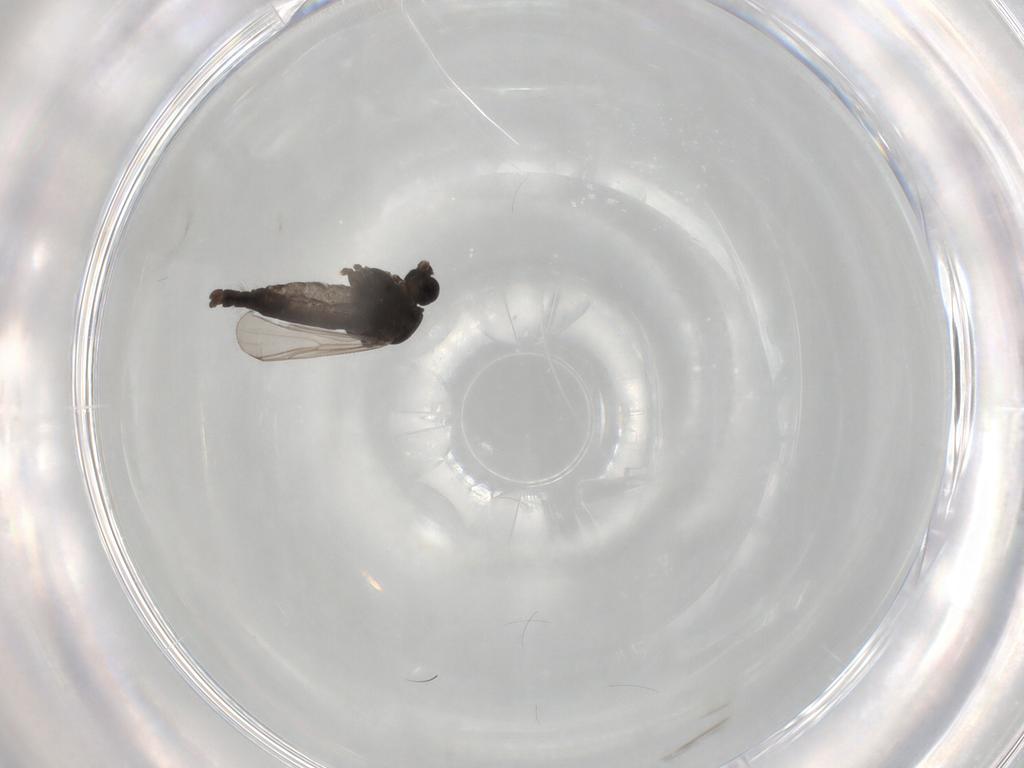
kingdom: Animalia
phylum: Arthropoda
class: Insecta
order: Diptera
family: Chironomidae
